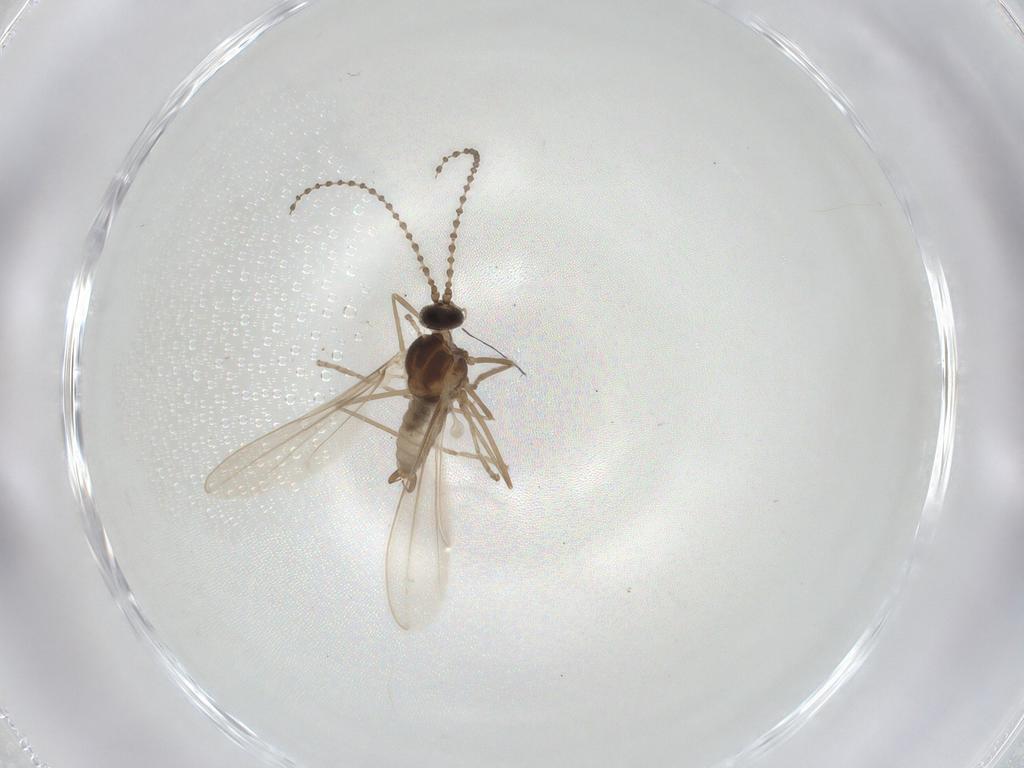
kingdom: Animalia
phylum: Arthropoda
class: Insecta
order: Diptera
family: Cecidomyiidae
